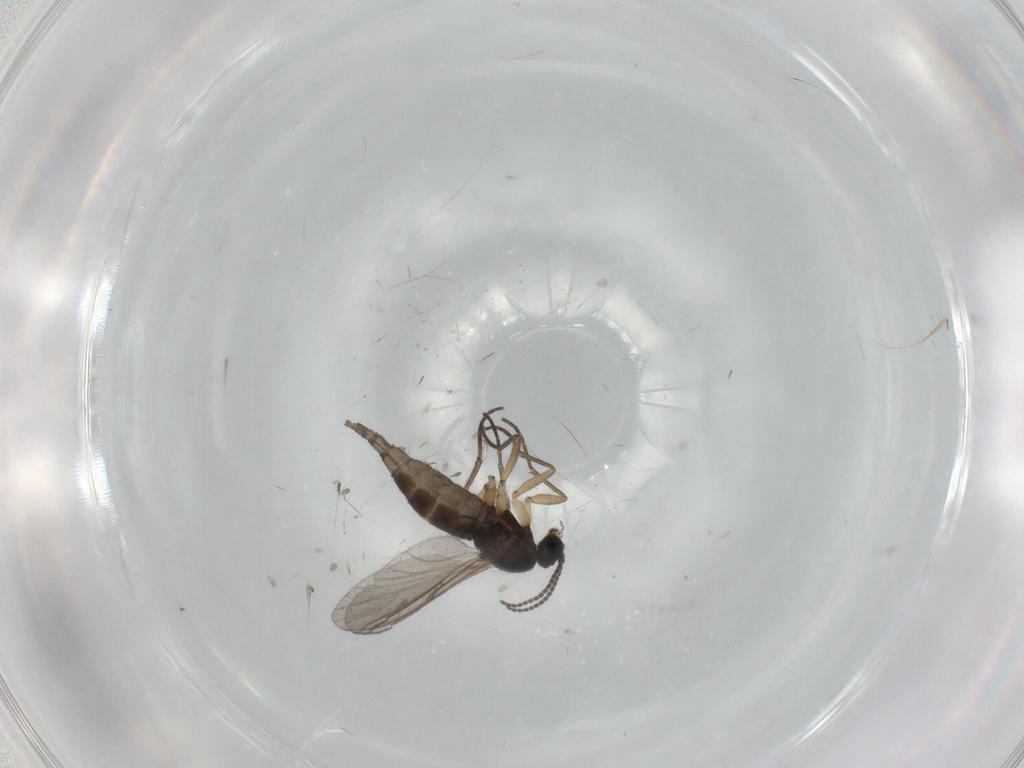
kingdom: Animalia
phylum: Arthropoda
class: Insecta
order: Diptera
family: Sciaridae
